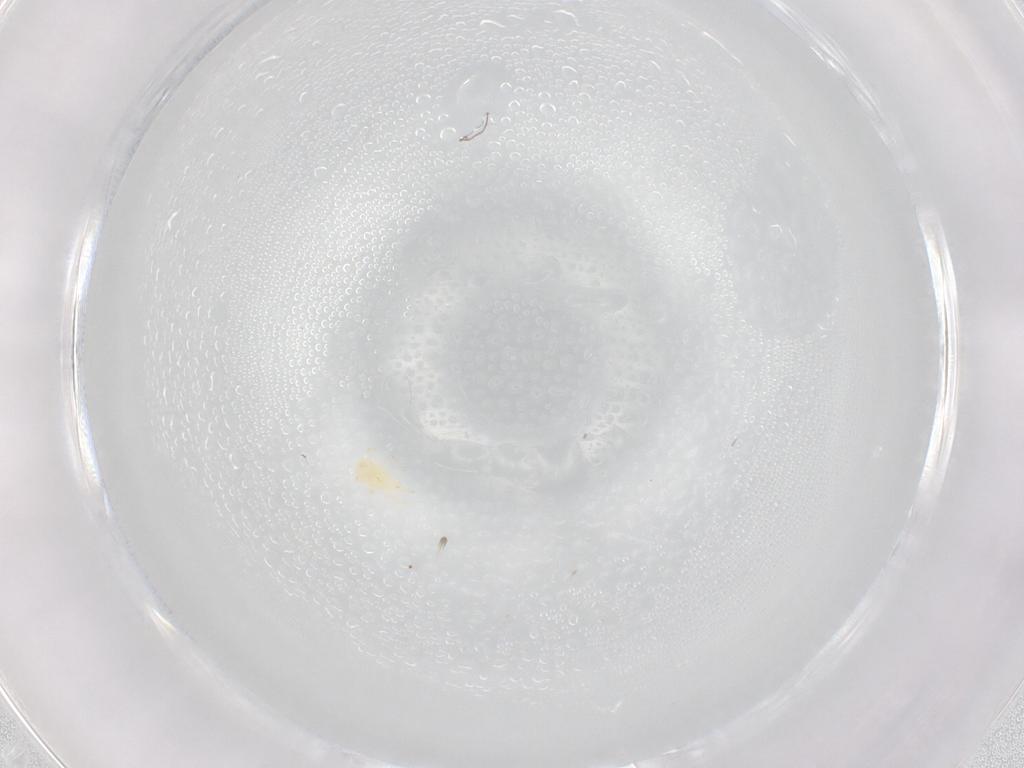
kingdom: Animalia
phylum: Arthropoda
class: Arachnida
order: Mesostigmata
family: Phytoseiidae
